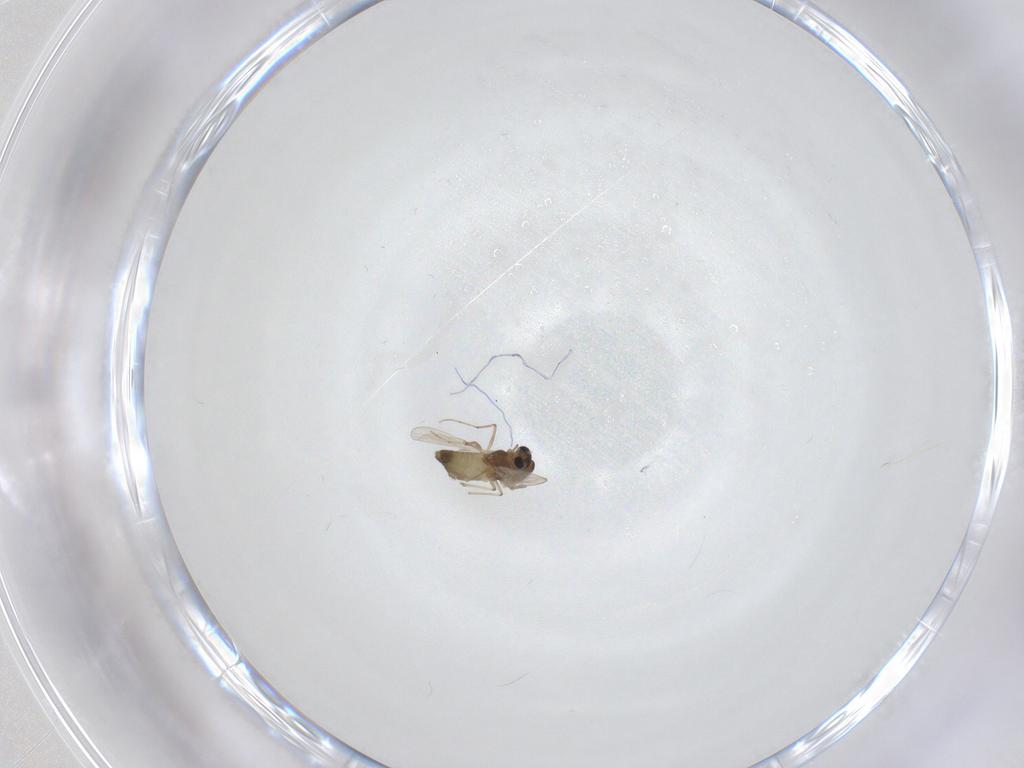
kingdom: Animalia
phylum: Arthropoda
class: Insecta
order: Diptera
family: Chironomidae
